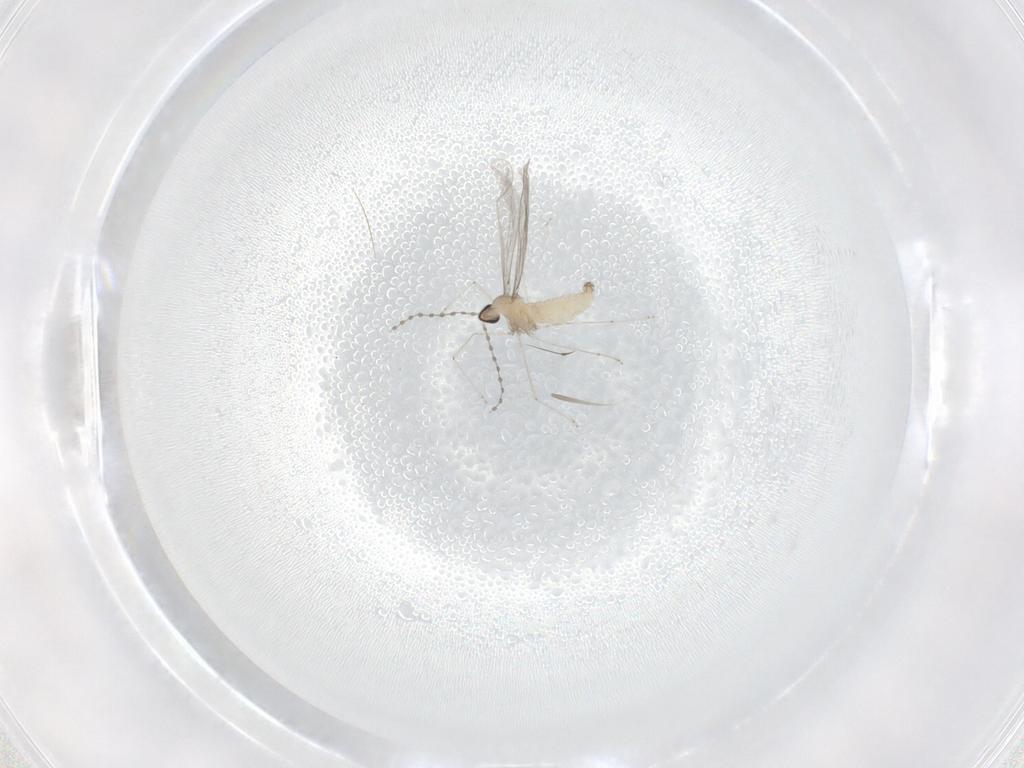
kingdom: Animalia
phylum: Arthropoda
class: Insecta
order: Diptera
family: Cecidomyiidae
